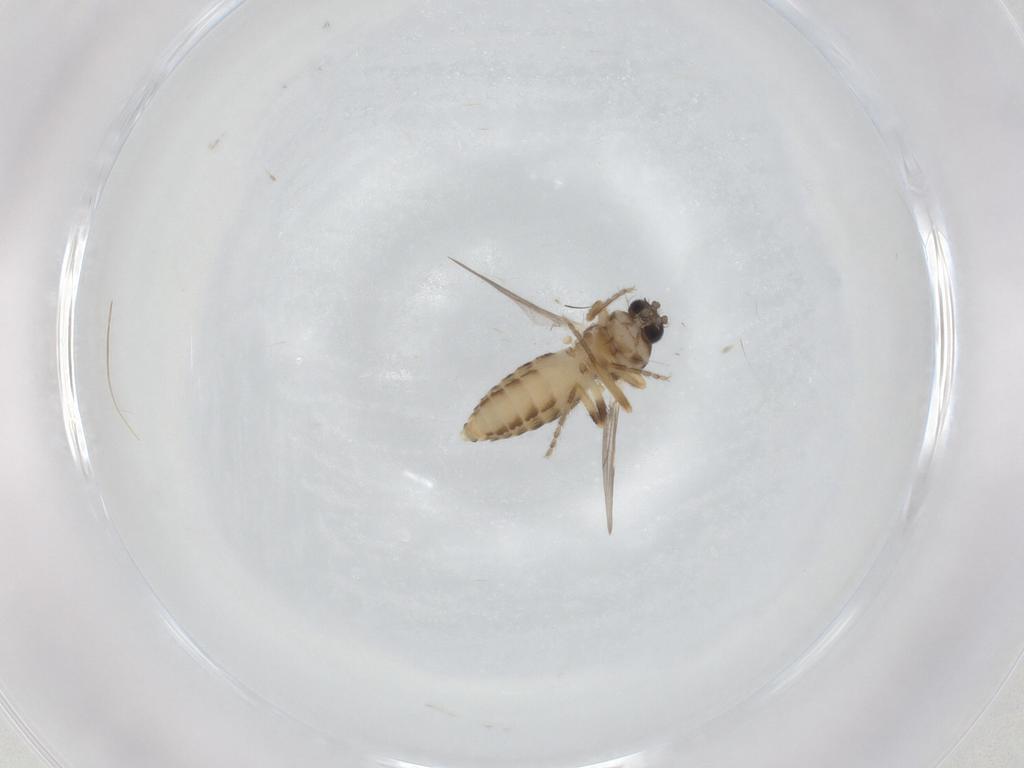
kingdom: Animalia
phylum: Arthropoda
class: Insecta
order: Diptera
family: Ceratopogonidae
